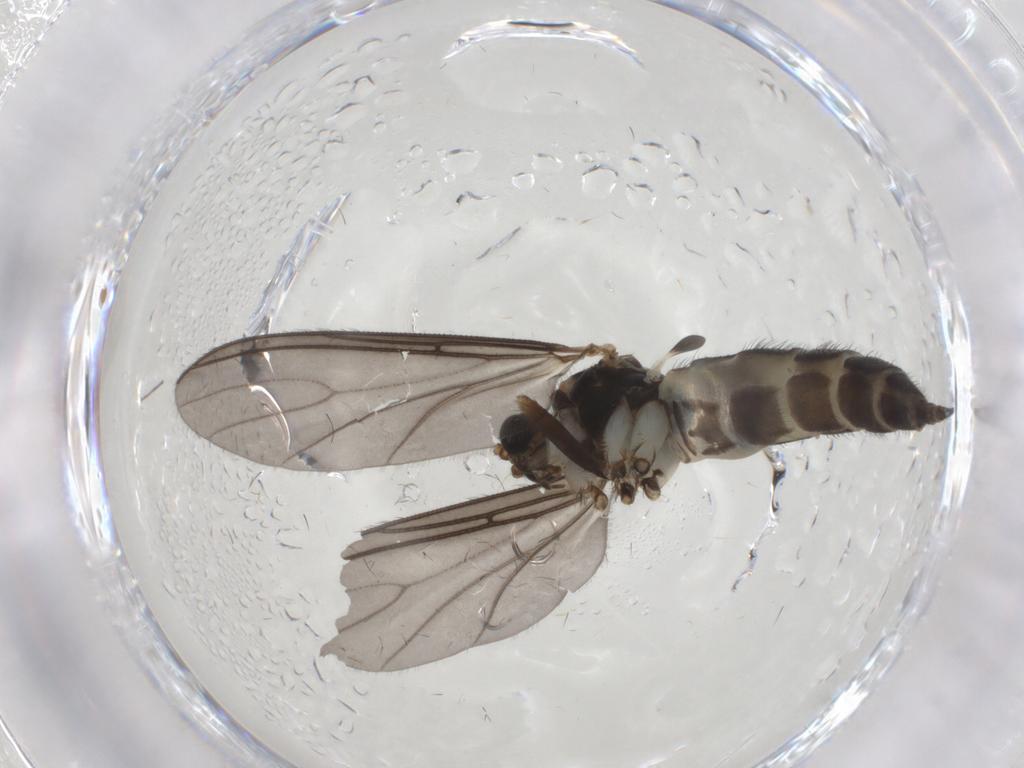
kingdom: Animalia
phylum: Arthropoda
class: Insecta
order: Diptera
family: Sciaridae
